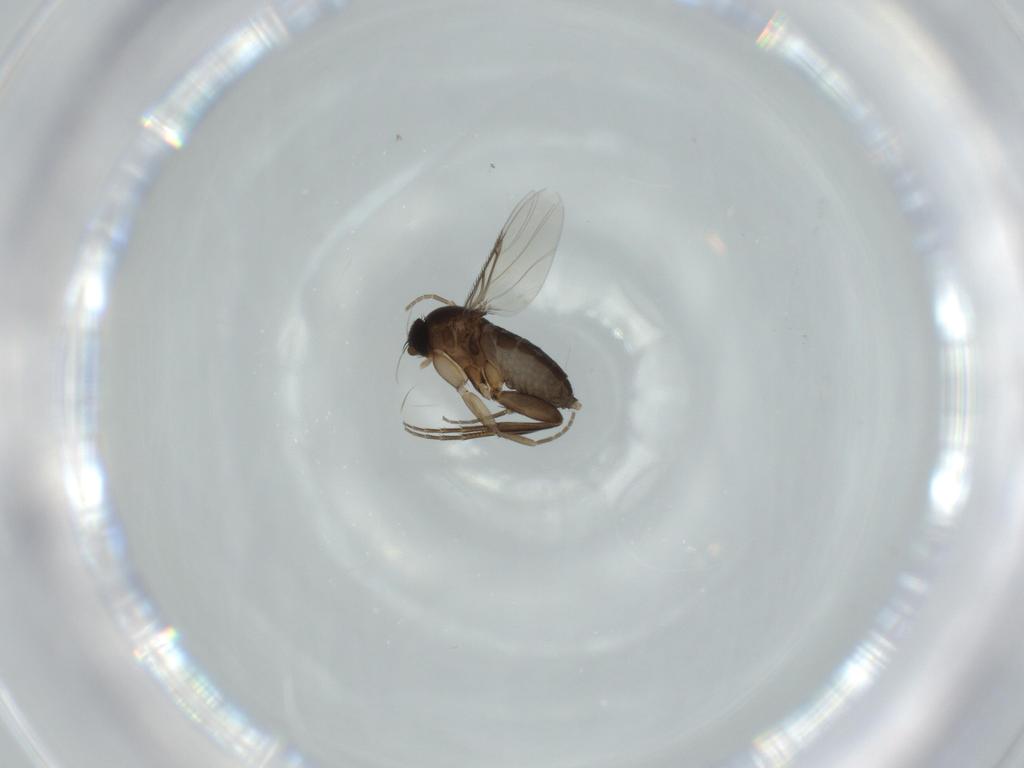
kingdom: Animalia
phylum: Arthropoda
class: Insecta
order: Diptera
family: Phoridae
